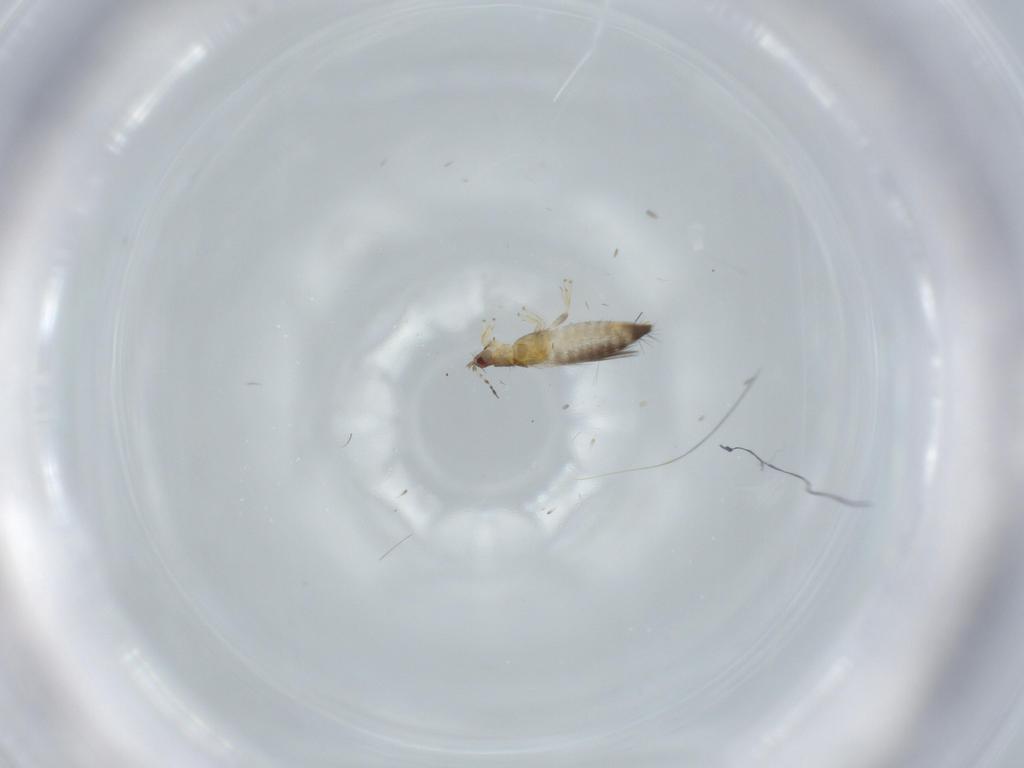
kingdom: Animalia
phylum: Arthropoda
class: Insecta
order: Thysanoptera
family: Thripidae
